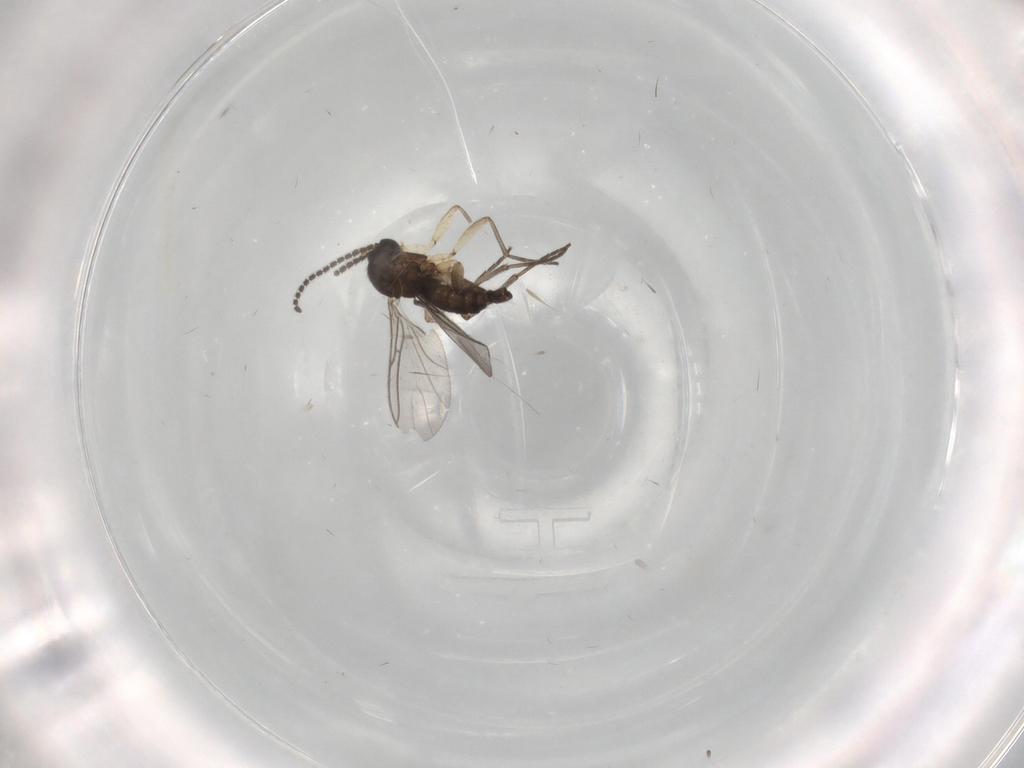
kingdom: Animalia
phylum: Arthropoda
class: Insecta
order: Diptera
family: Sciaridae
